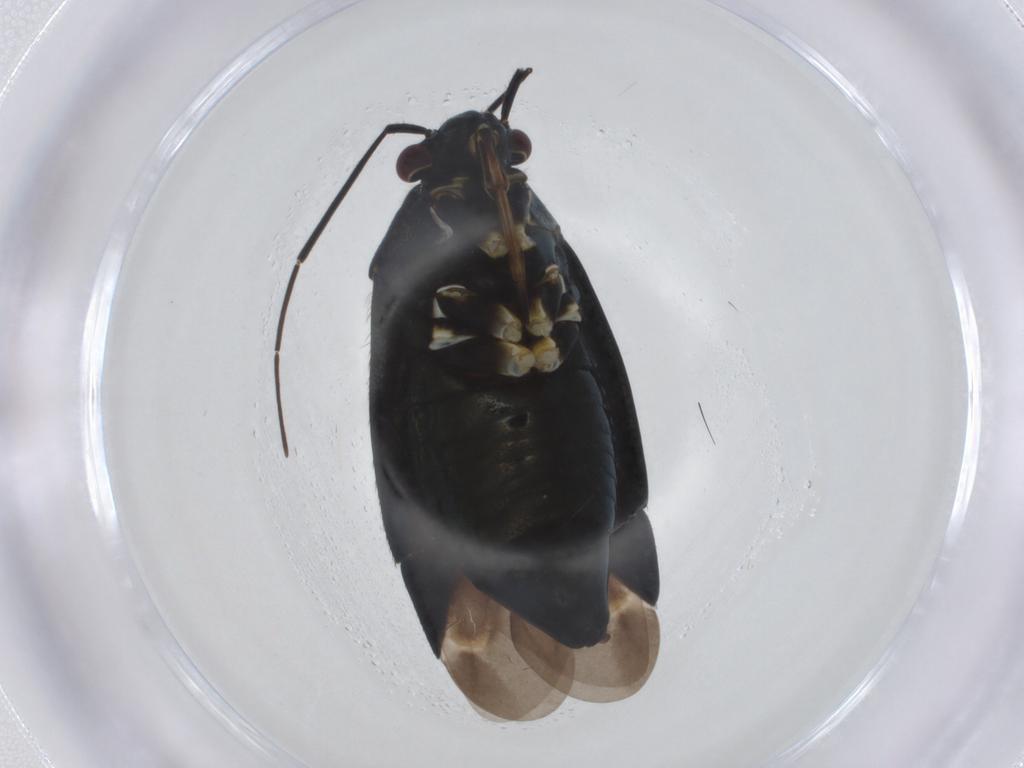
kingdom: Animalia
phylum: Arthropoda
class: Insecta
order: Hemiptera
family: Miridae
